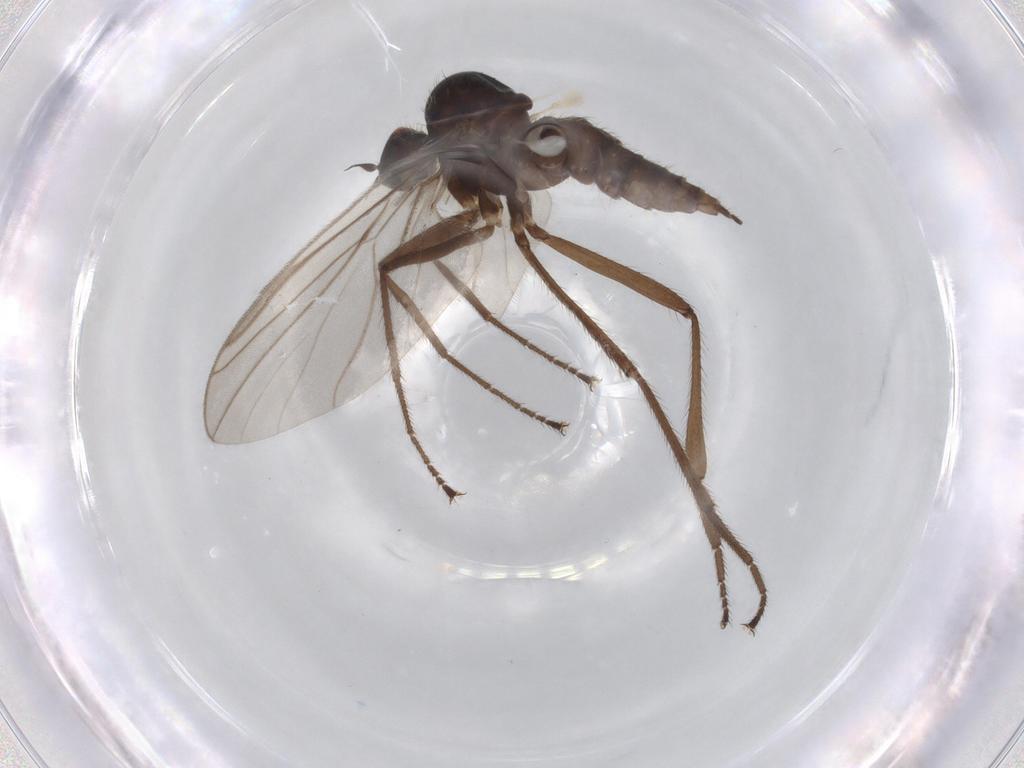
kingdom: Animalia
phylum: Arthropoda
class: Insecta
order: Diptera
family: Hybotidae
